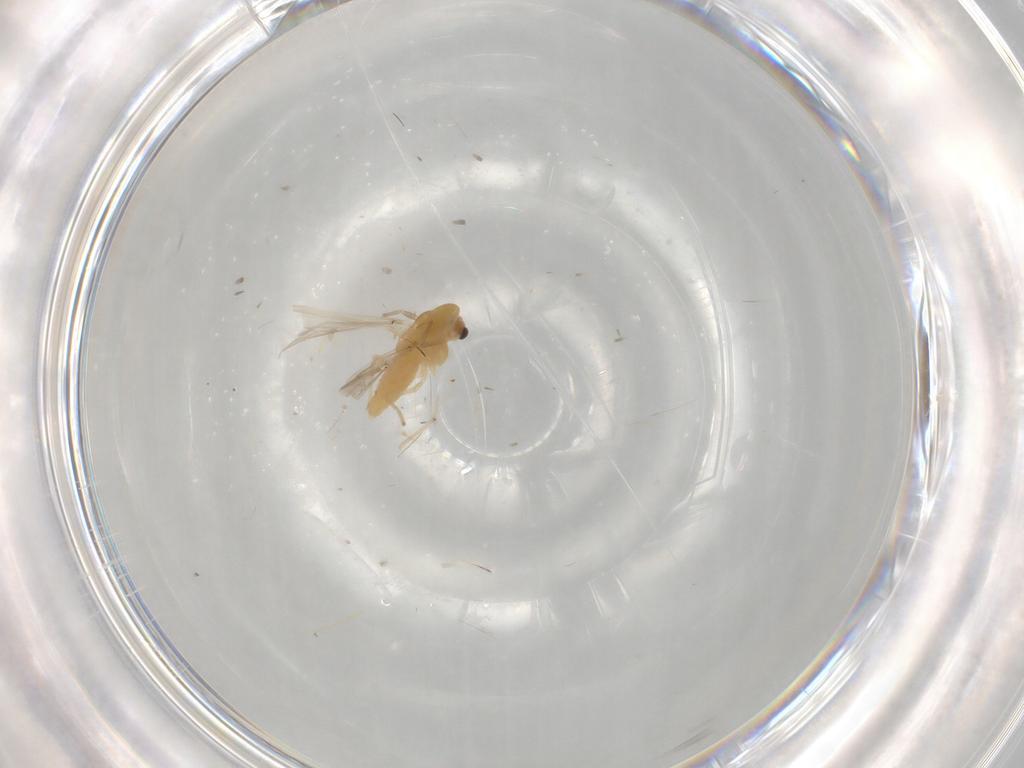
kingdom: Animalia
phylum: Arthropoda
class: Insecta
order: Diptera
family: Chironomidae
